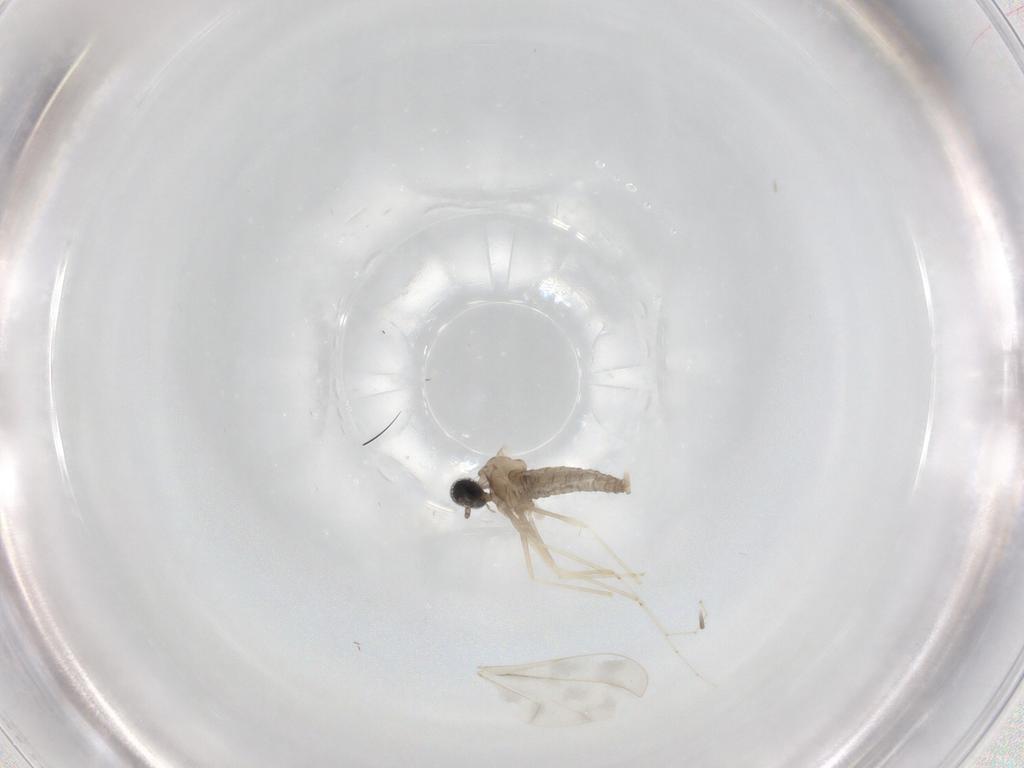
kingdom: Animalia
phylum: Arthropoda
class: Insecta
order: Diptera
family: Cecidomyiidae
